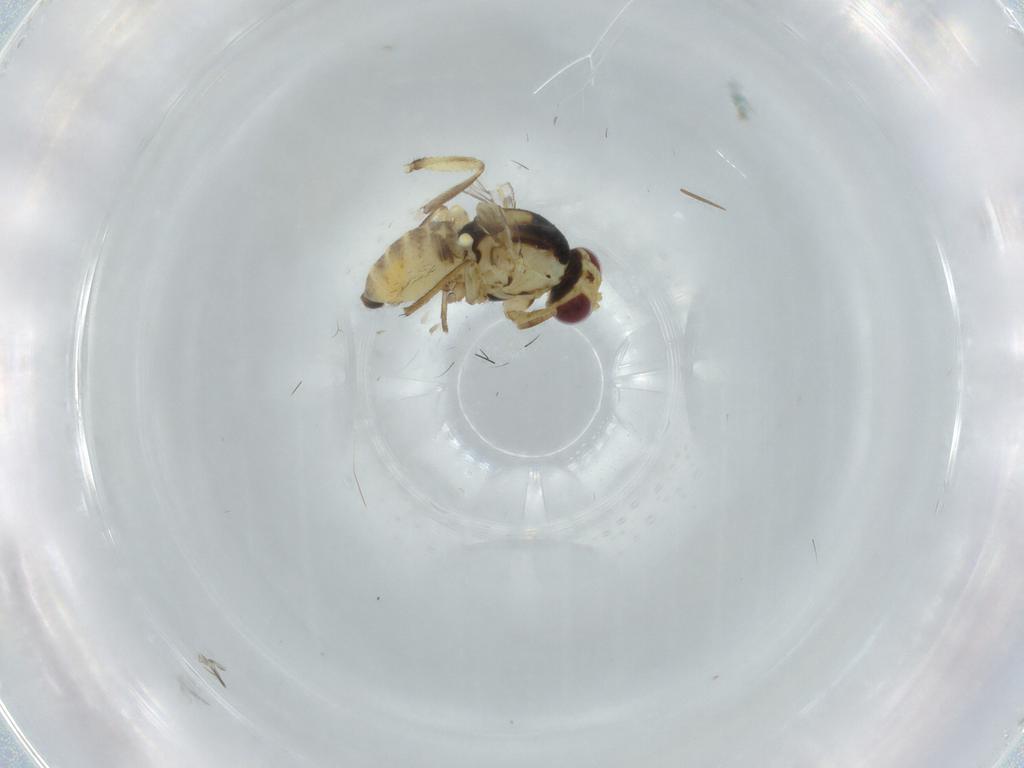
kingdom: Animalia
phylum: Arthropoda
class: Insecta
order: Diptera
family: Agromyzidae
